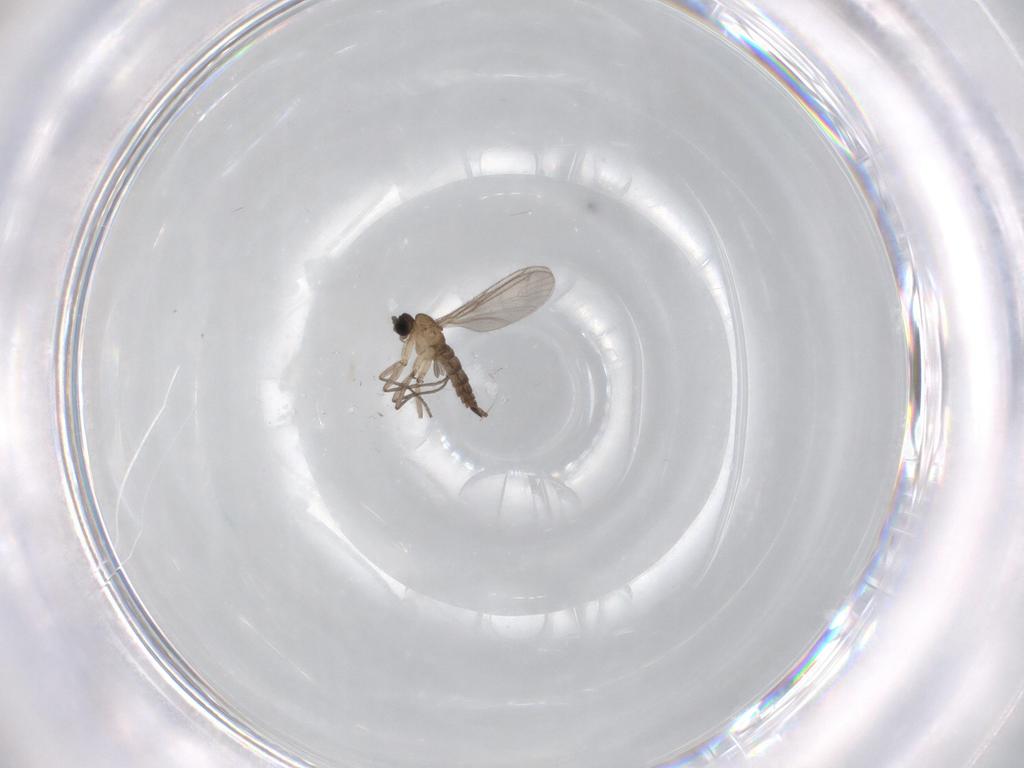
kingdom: Animalia
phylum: Arthropoda
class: Insecta
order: Diptera
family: Sciaridae
